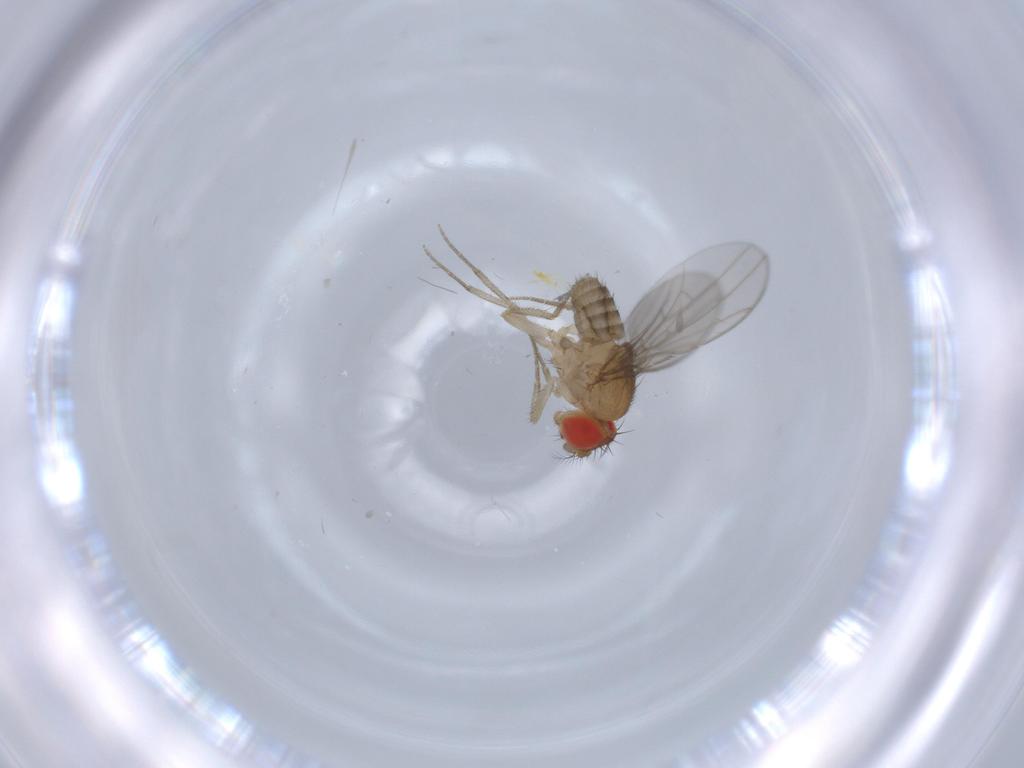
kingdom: Animalia
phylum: Arthropoda
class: Insecta
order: Diptera
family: Drosophilidae
